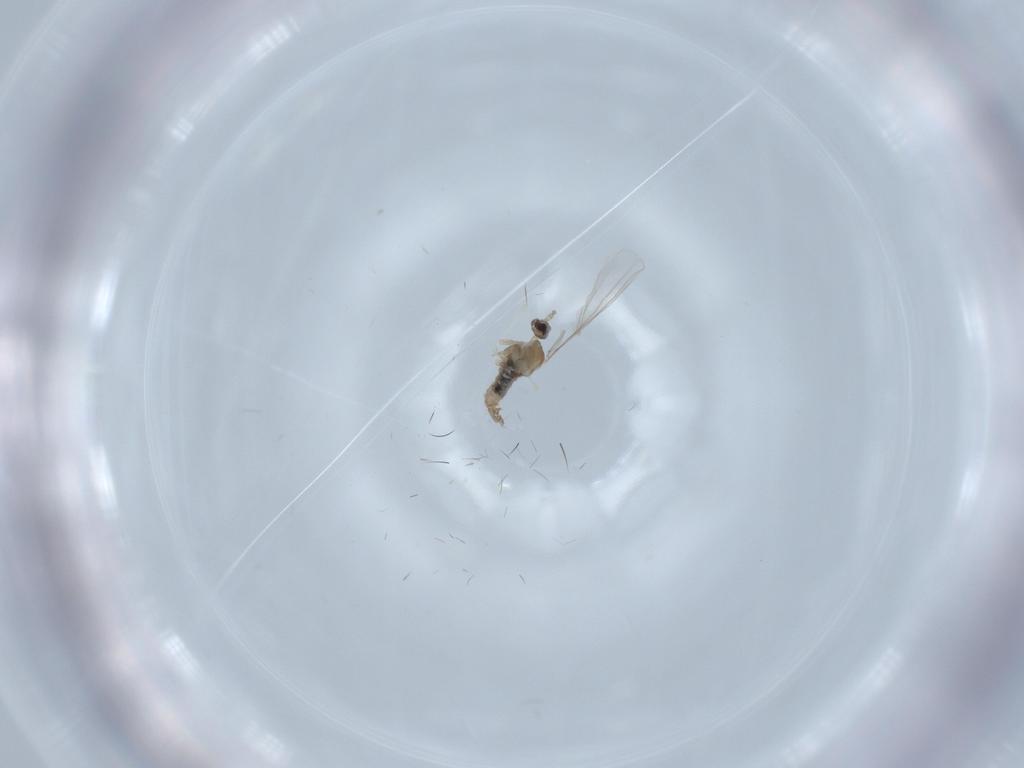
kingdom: Animalia
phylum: Arthropoda
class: Insecta
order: Diptera
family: Cecidomyiidae
